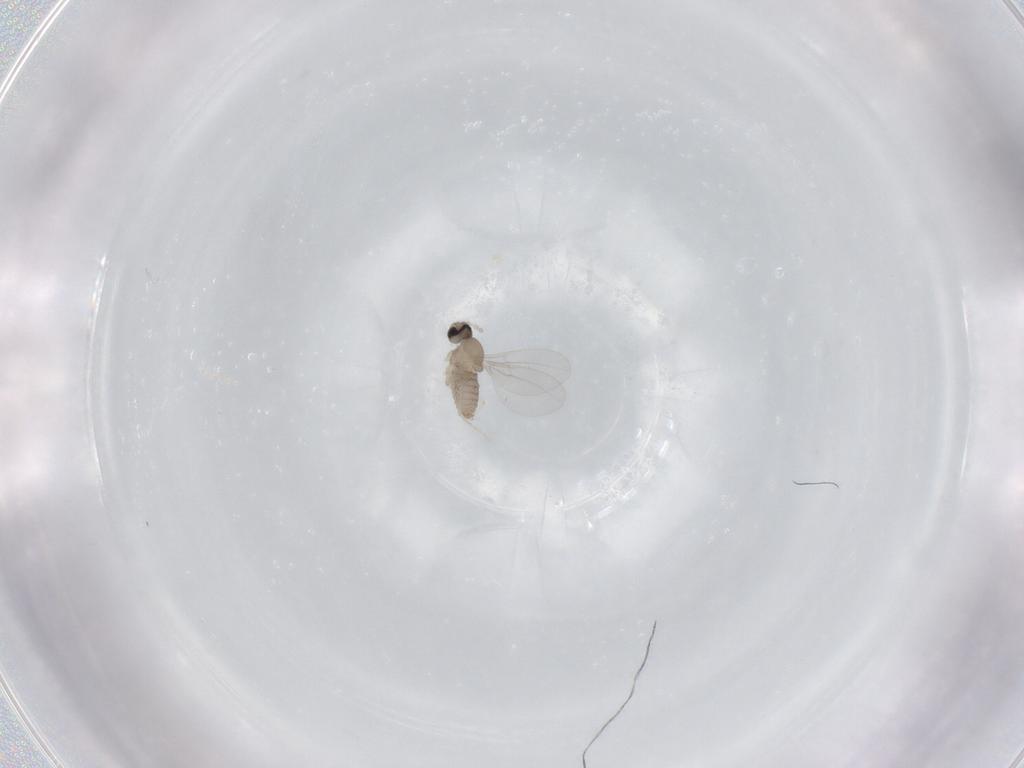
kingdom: Animalia
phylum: Arthropoda
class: Insecta
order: Diptera
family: Cecidomyiidae
